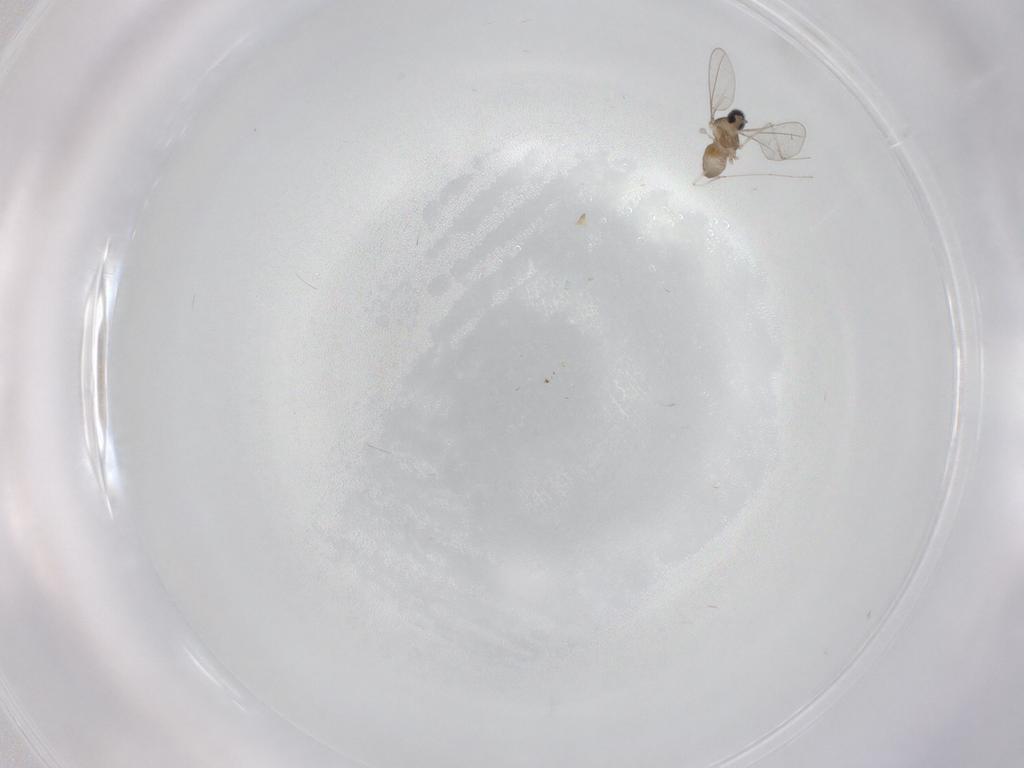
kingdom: Animalia
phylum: Arthropoda
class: Insecta
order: Diptera
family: Cecidomyiidae
